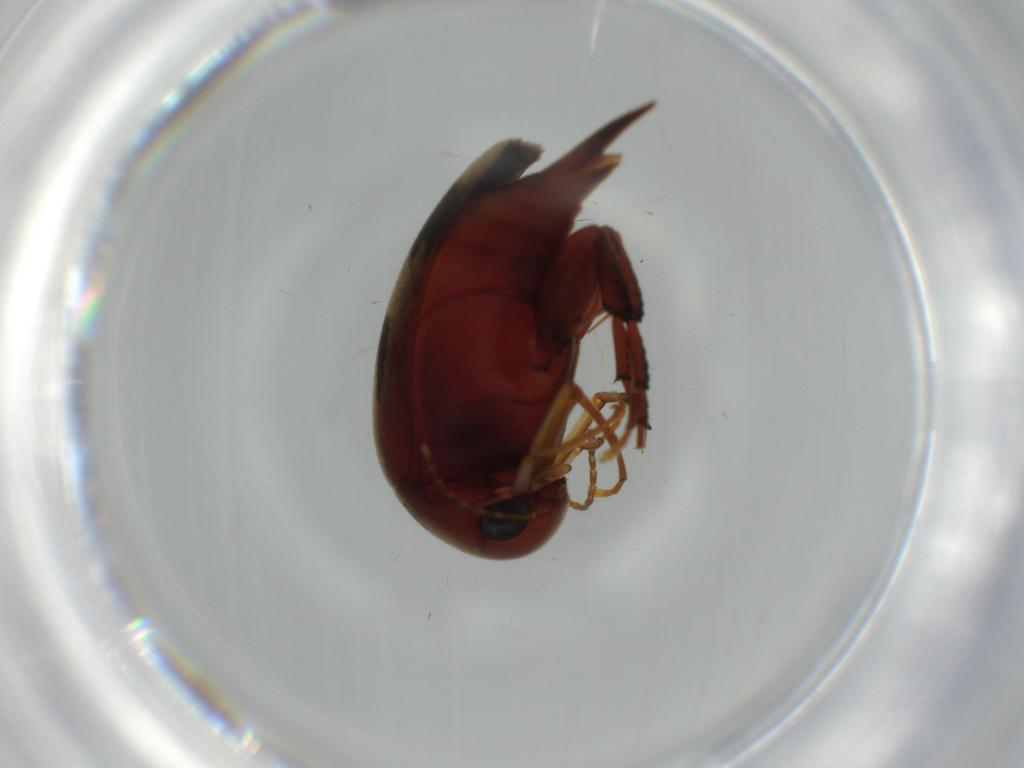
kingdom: Animalia
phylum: Arthropoda
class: Insecta
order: Coleoptera
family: Mordellidae
